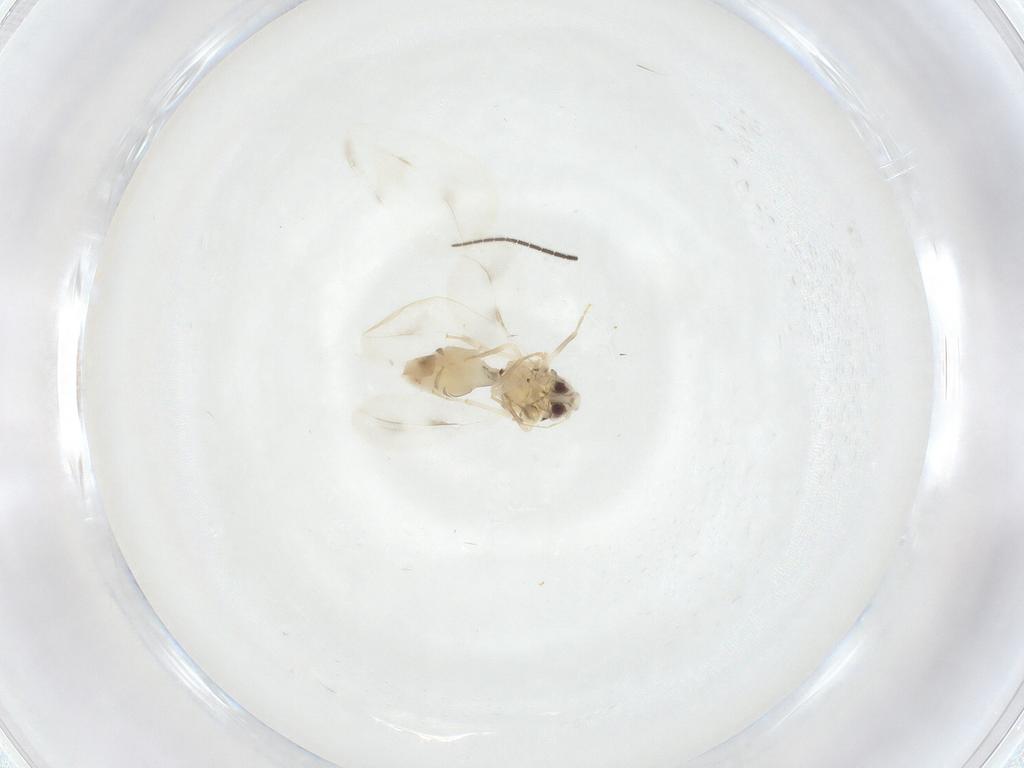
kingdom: Animalia
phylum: Arthropoda
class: Insecta
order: Hemiptera
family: Aleyrodidae
